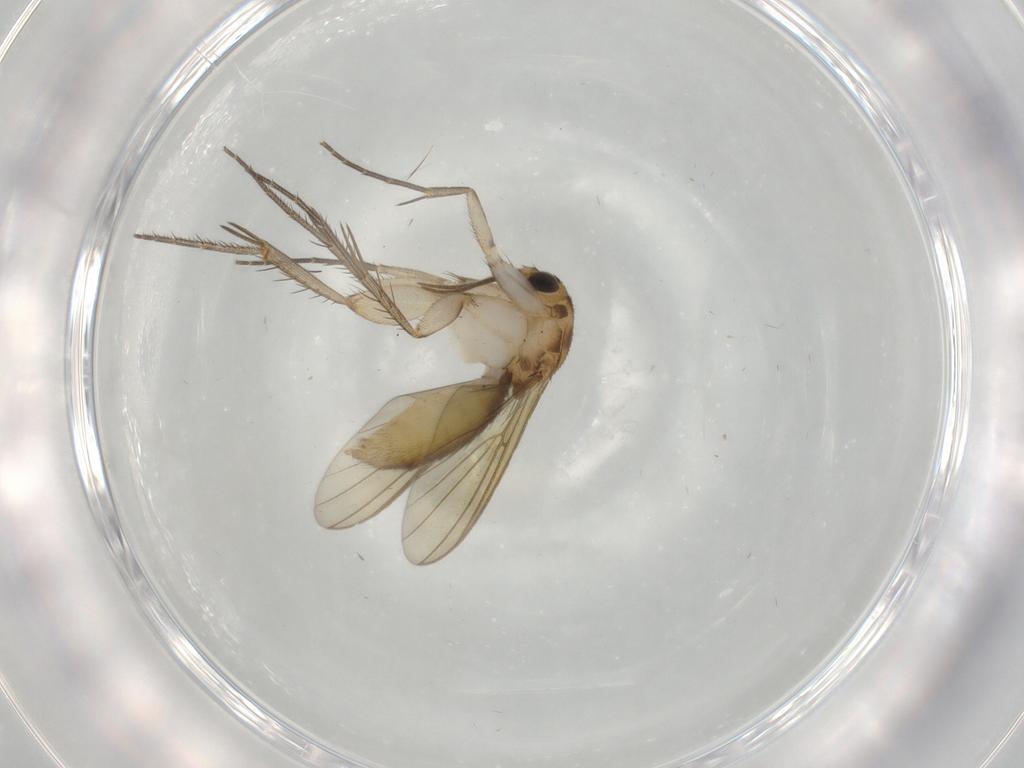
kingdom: Animalia
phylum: Arthropoda
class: Insecta
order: Diptera
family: Mycetophilidae
